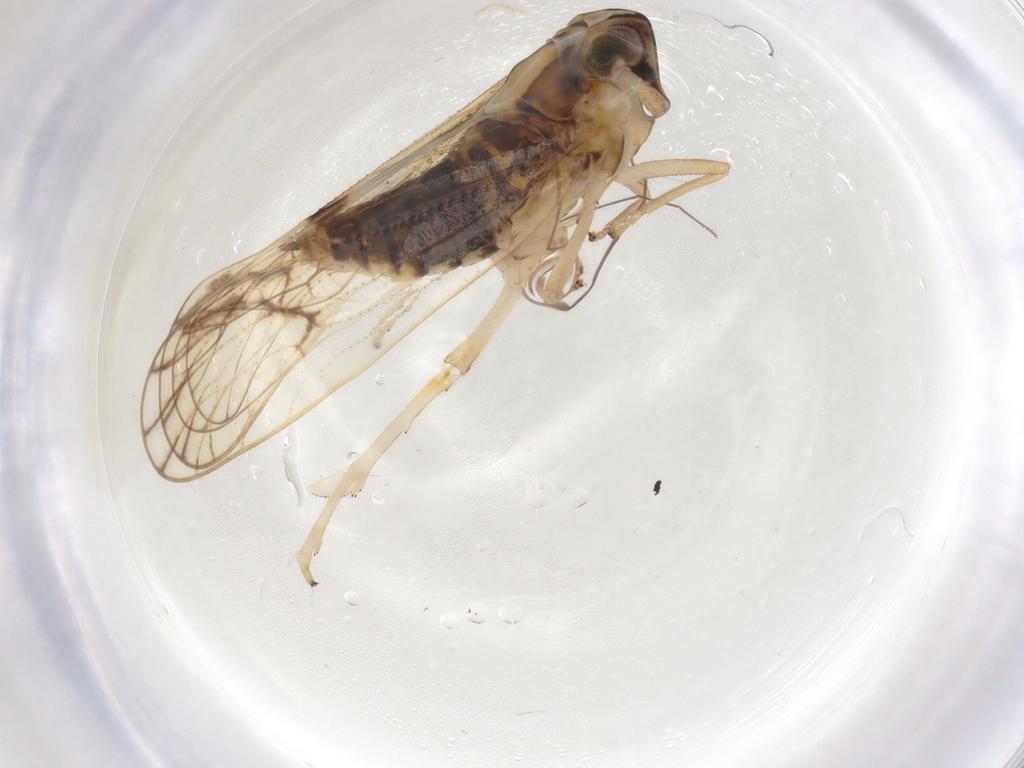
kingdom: Animalia
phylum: Arthropoda
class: Insecta
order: Hemiptera
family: Delphacidae
